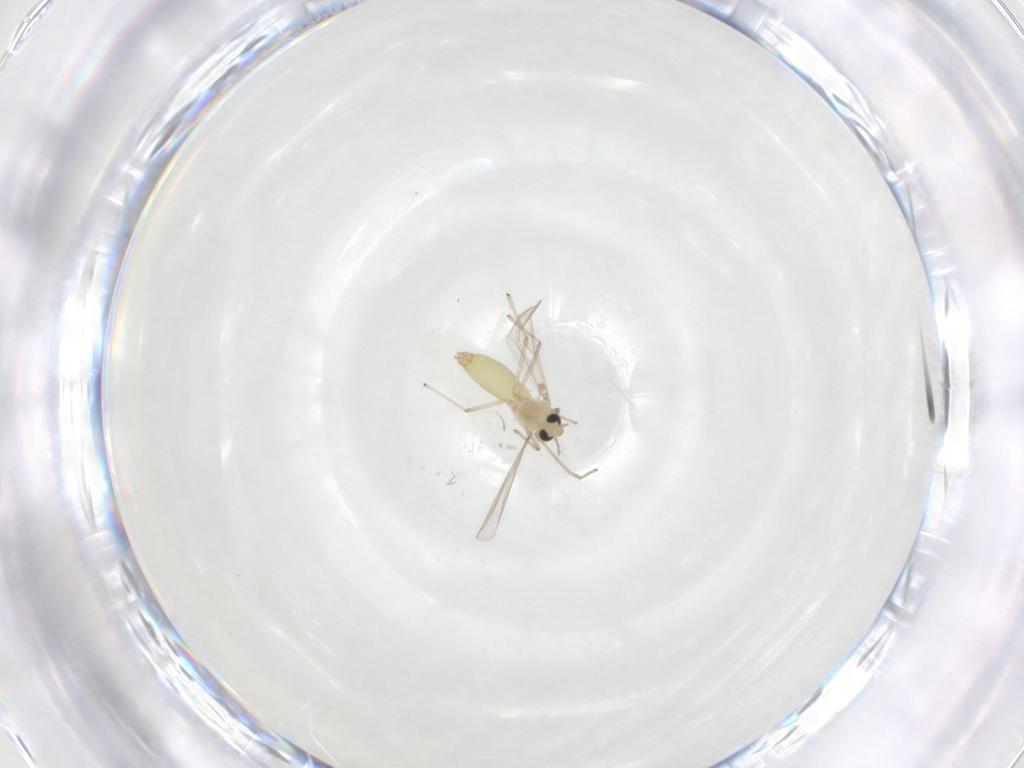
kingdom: Animalia
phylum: Arthropoda
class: Insecta
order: Diptera
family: Chironomidae
